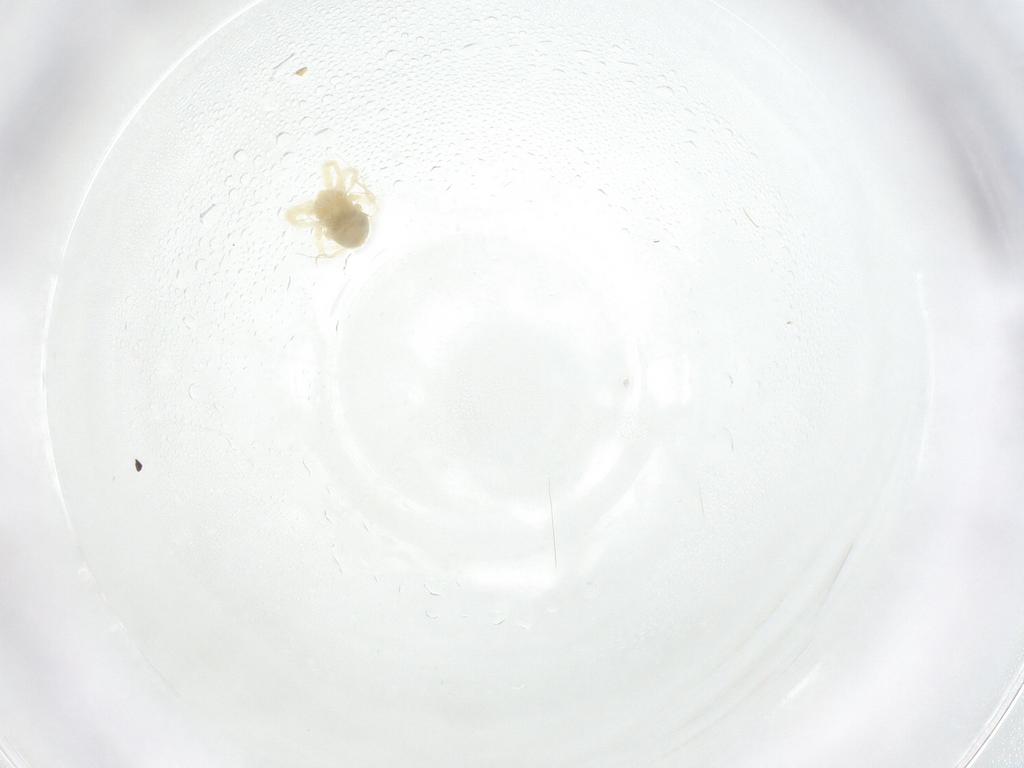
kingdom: Animalia
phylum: Arthropoda
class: Arachnida
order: Trombidiformes
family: Anystidae
